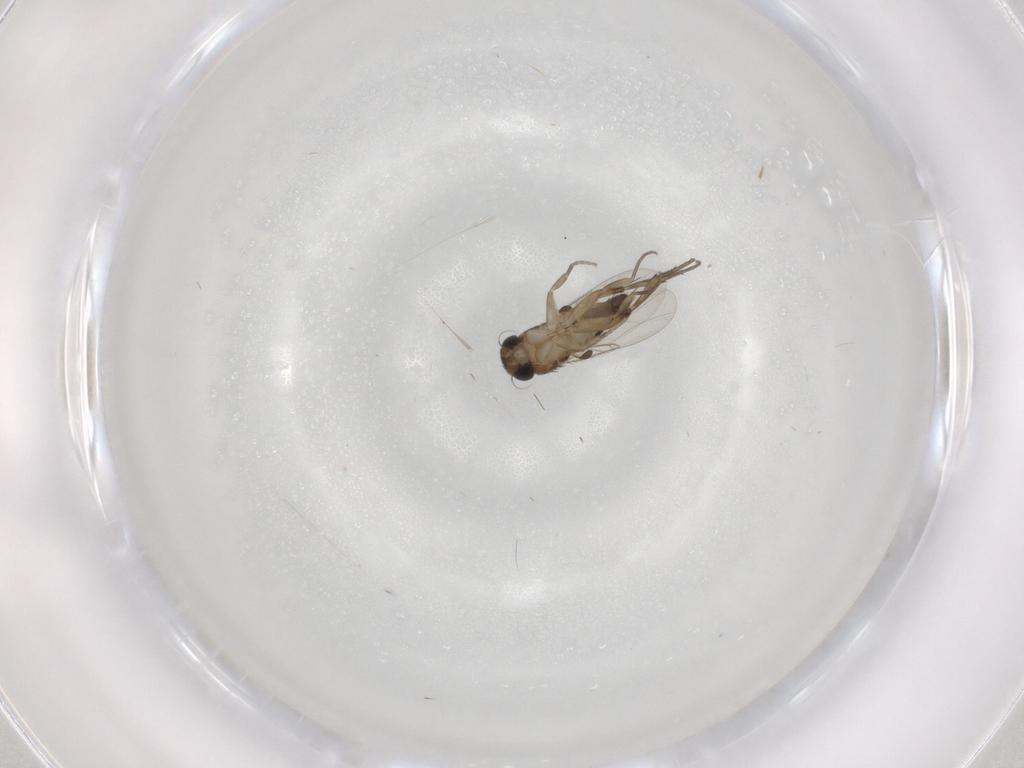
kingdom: Animalia
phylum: Arthropoda
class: Insecta
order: Diptera
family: Phoridae
